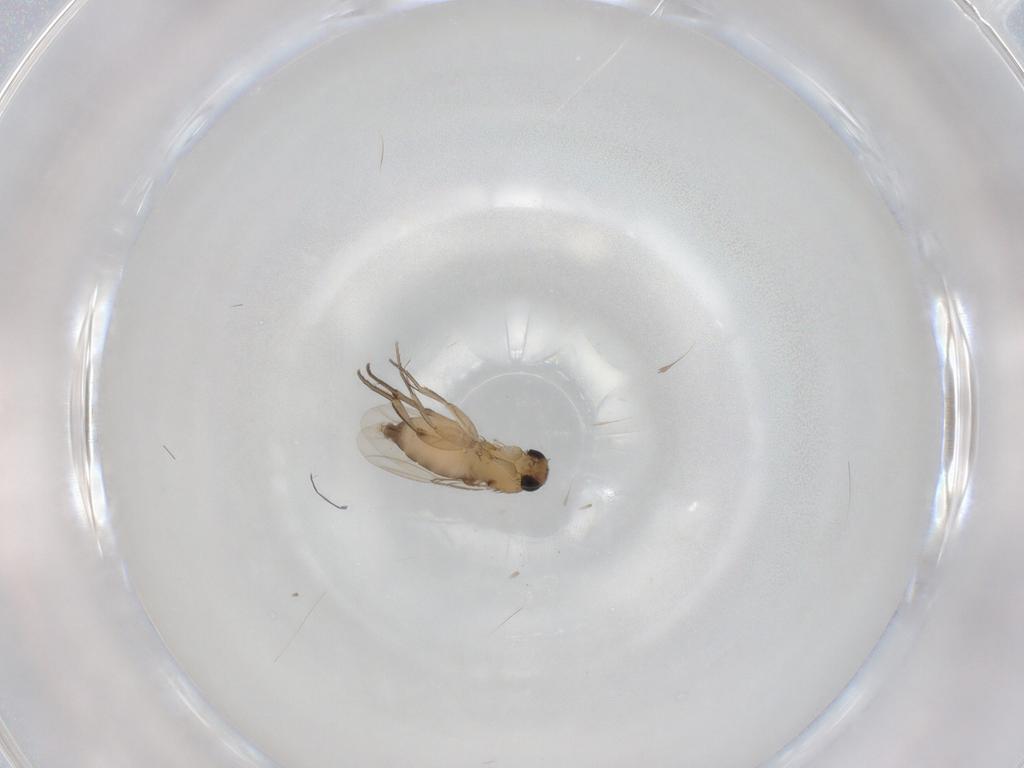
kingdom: Animalia
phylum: Arthropoda
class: Insecta
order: Diptera
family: Phoridae
